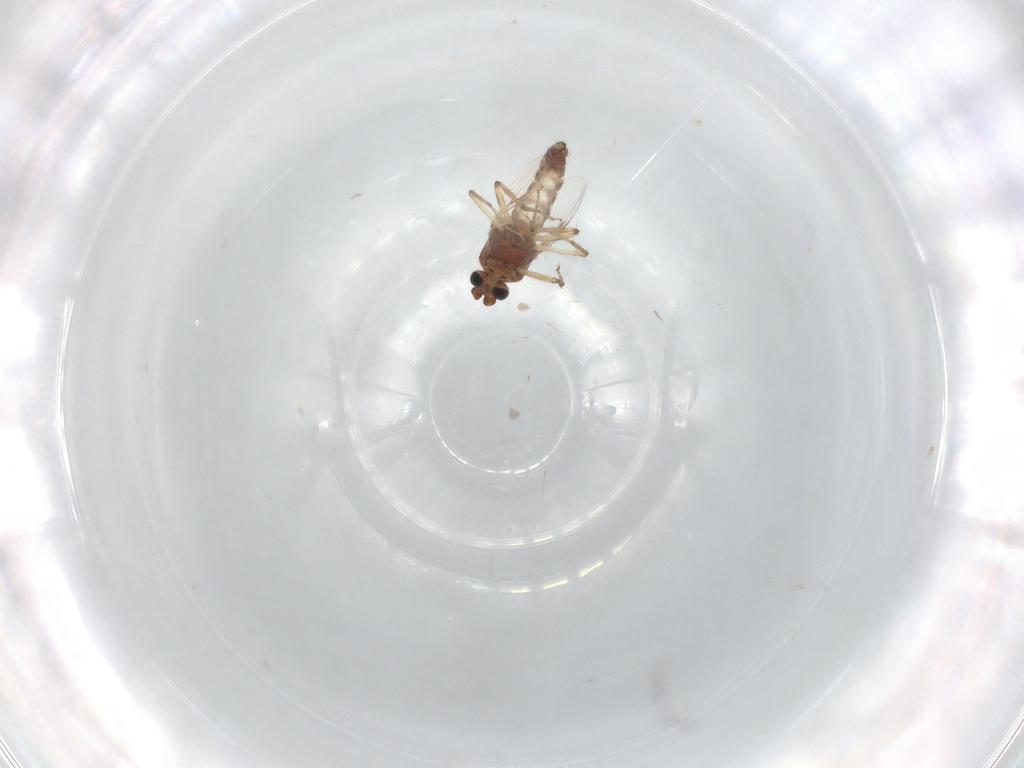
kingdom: Animalia
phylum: Arthropoda
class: Insecta
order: Diptera
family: Ceratopogonidae
